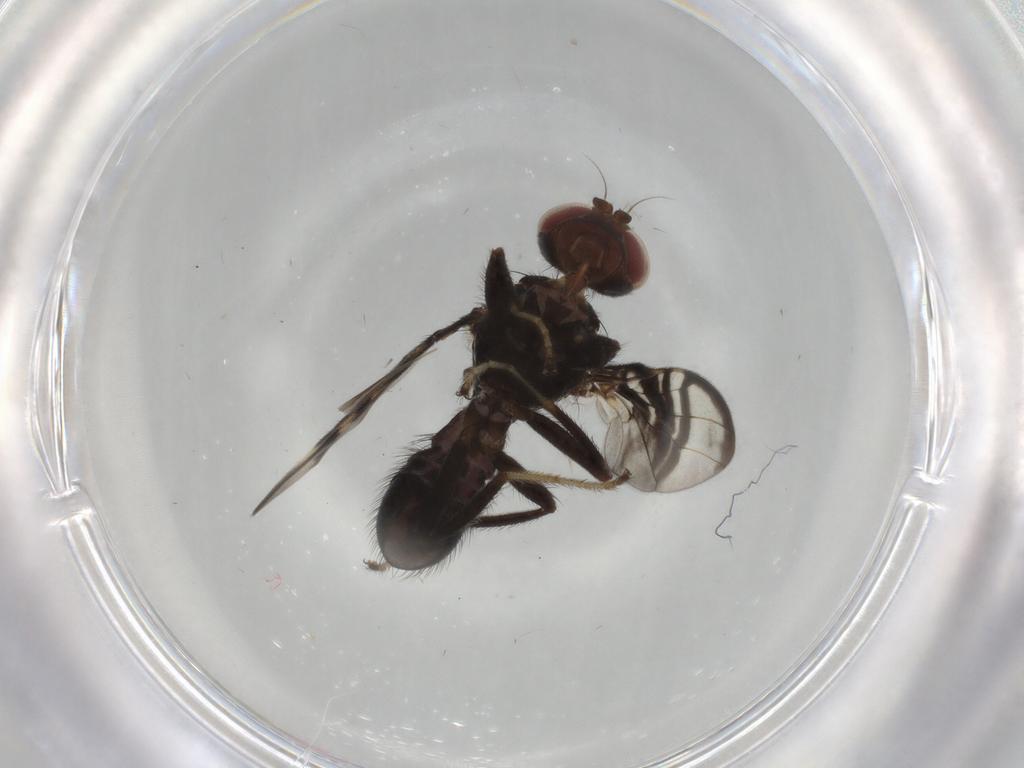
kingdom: Animalia
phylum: Arthropoda
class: Insecta
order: Diptera
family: Platystomatidae
